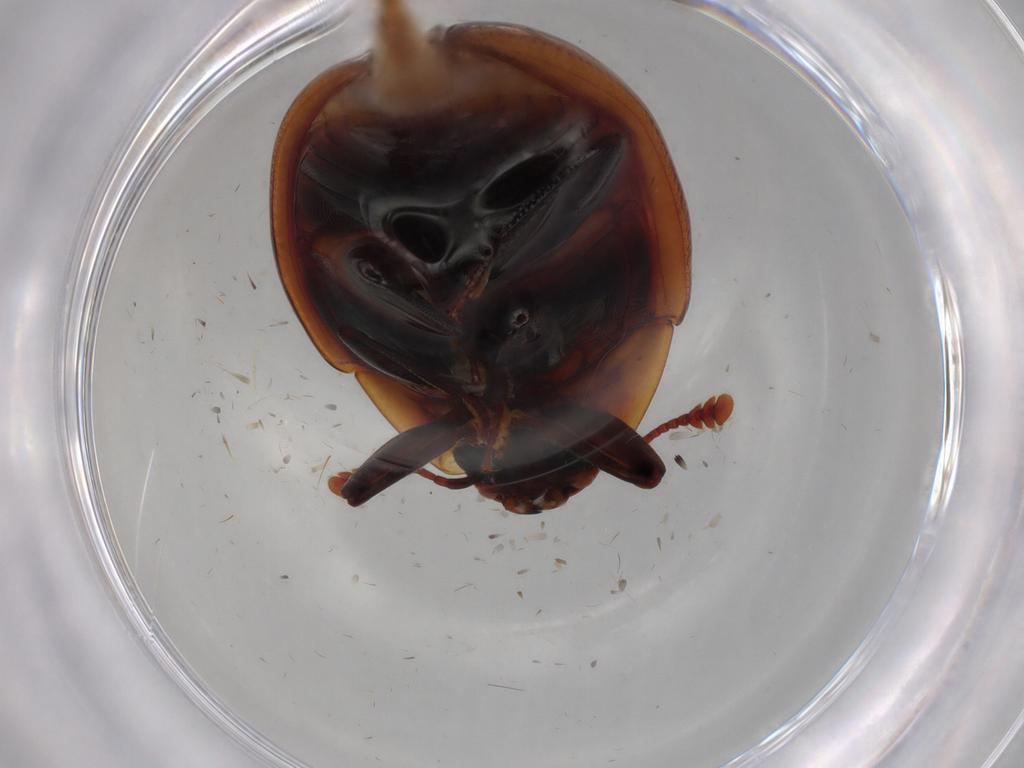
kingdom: Animalia
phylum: Arthropoda
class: Insecta
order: Coleoptera
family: Zopheridae
